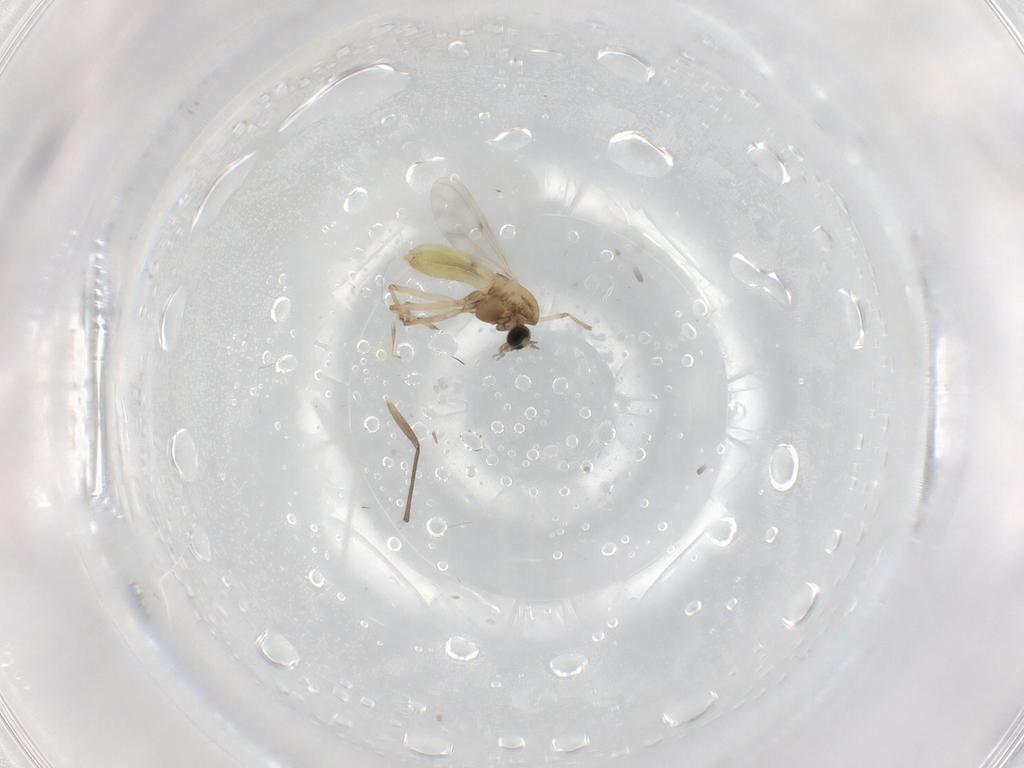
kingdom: Animalia
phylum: Arthropoda
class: Insecta
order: Diptera
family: Chironomidae
